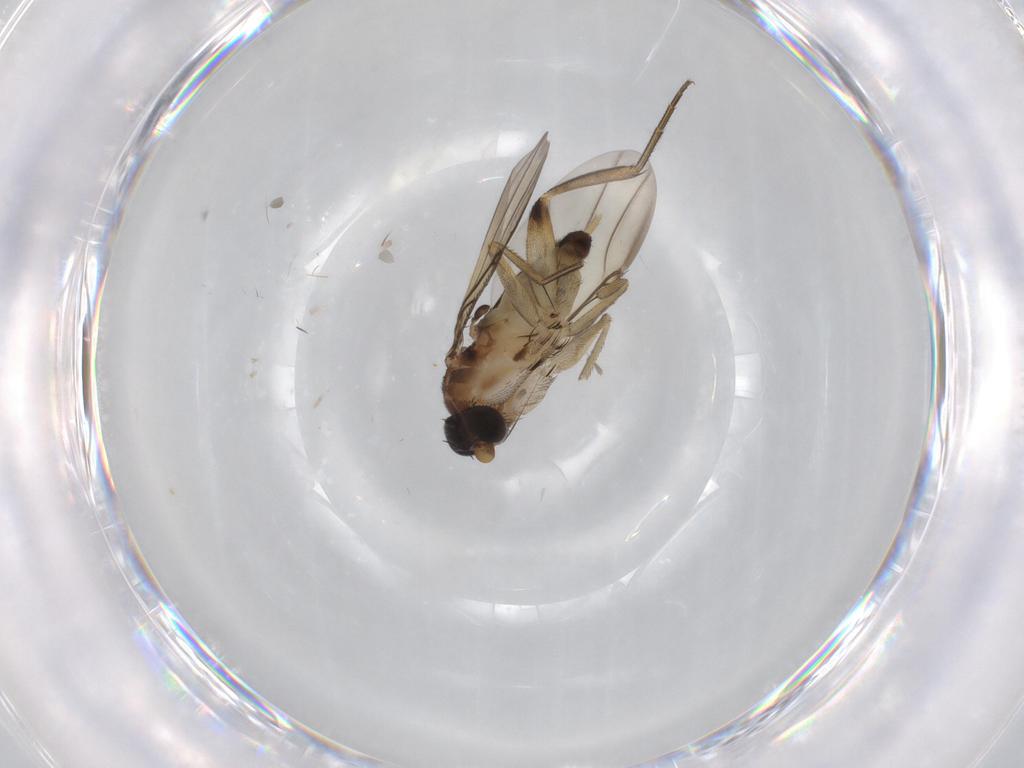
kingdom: Animalia
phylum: Arthropoda
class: Insecta
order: Diptera
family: Phoridae
